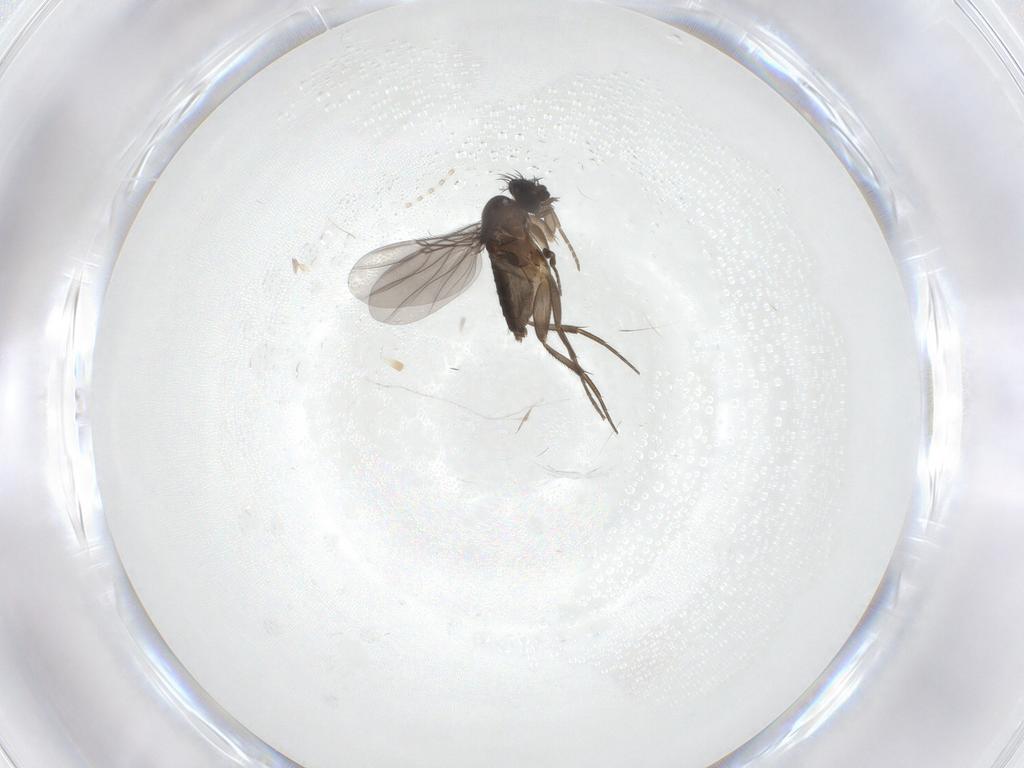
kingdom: Animalia
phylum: Arthropoda
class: Insecta
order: Diptera
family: Phoridae
